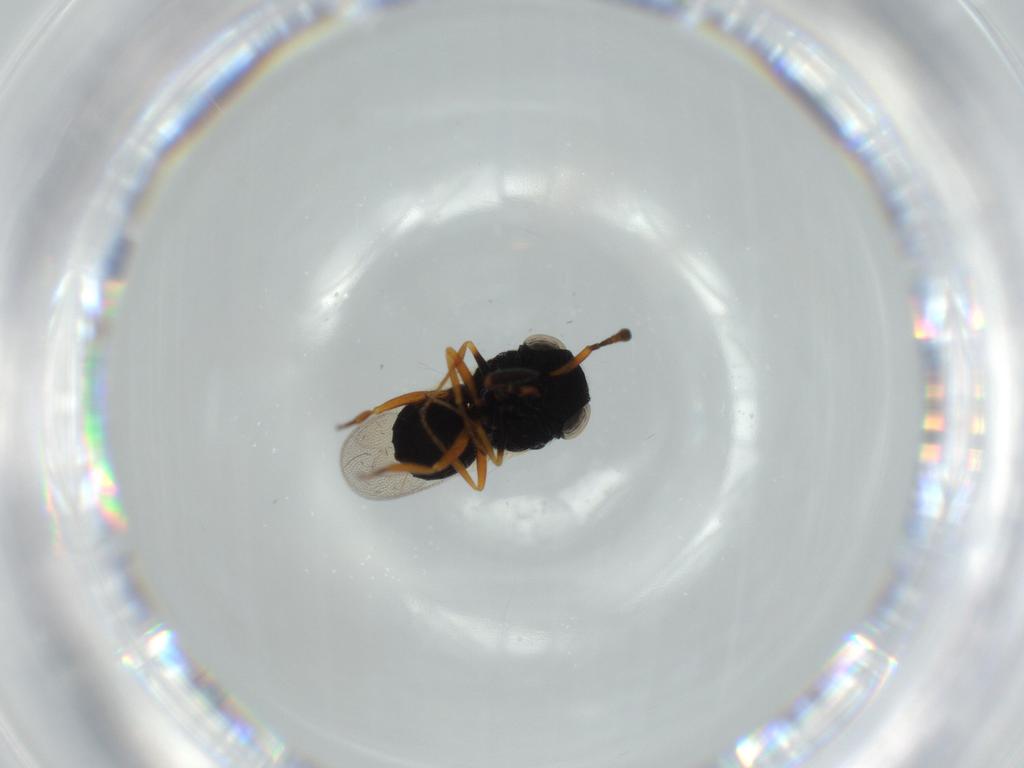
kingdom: Animalia
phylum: Arthropoda
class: Insecta
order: Hymenoptera
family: Scelionidae
